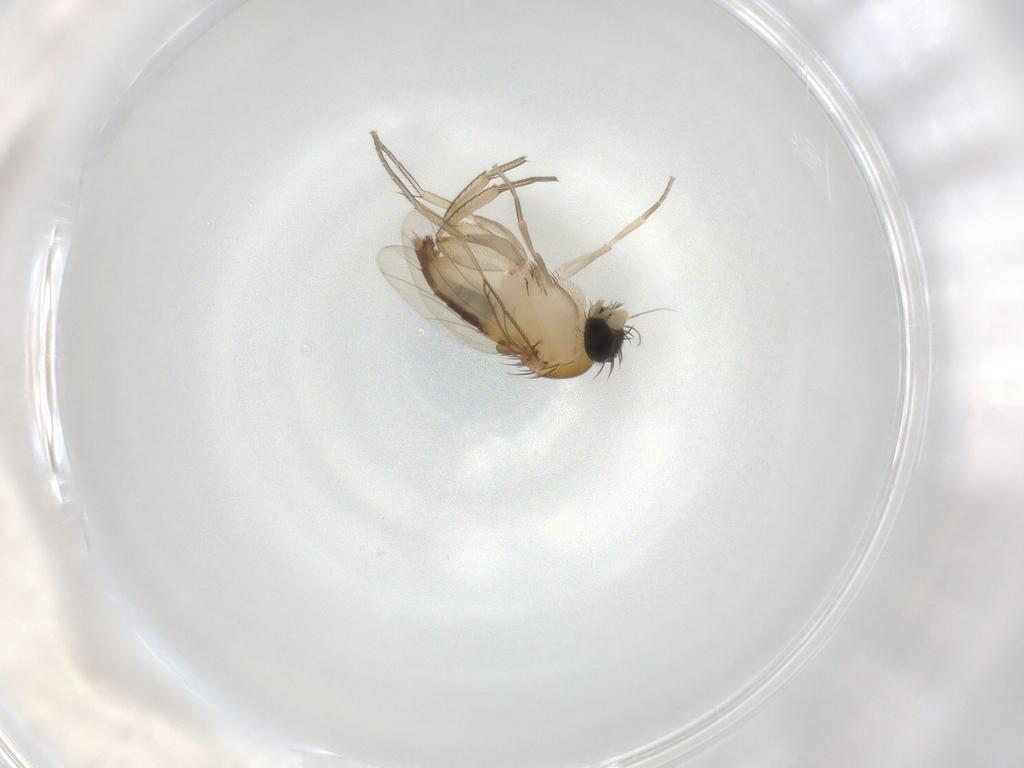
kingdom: Animalia
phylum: Arthropoda
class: Insecta
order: Diptera
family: Phoridae
